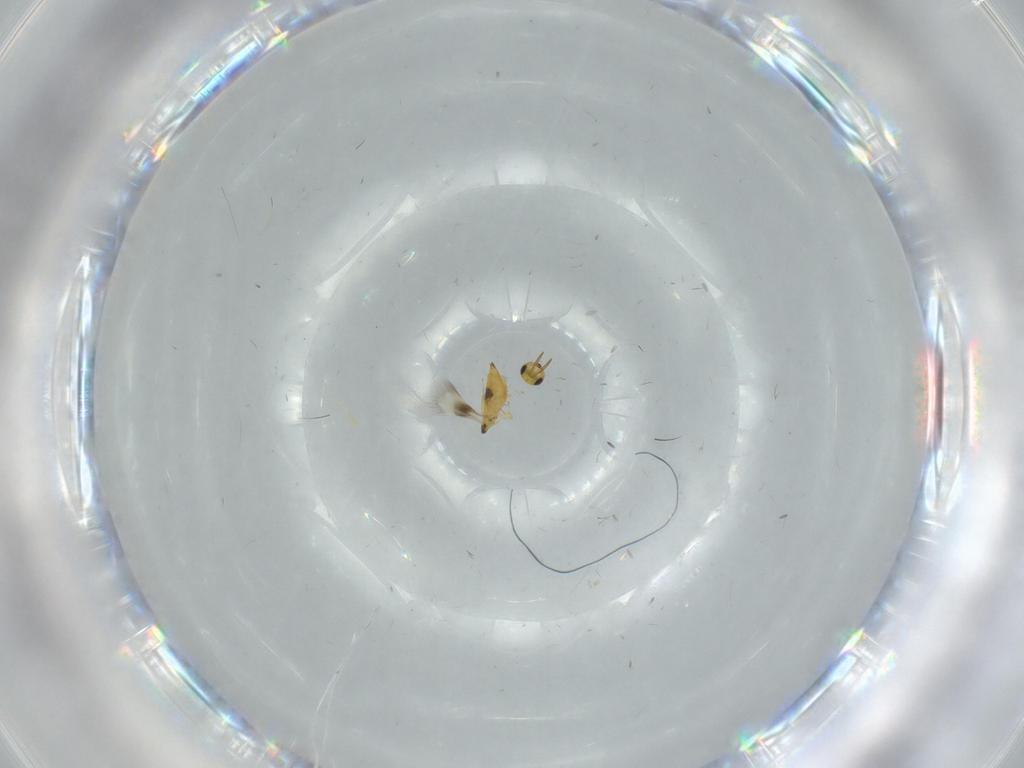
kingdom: Animalia
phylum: Arthropoda
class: Insecta
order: Hymenoptera
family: Signiphoridae
